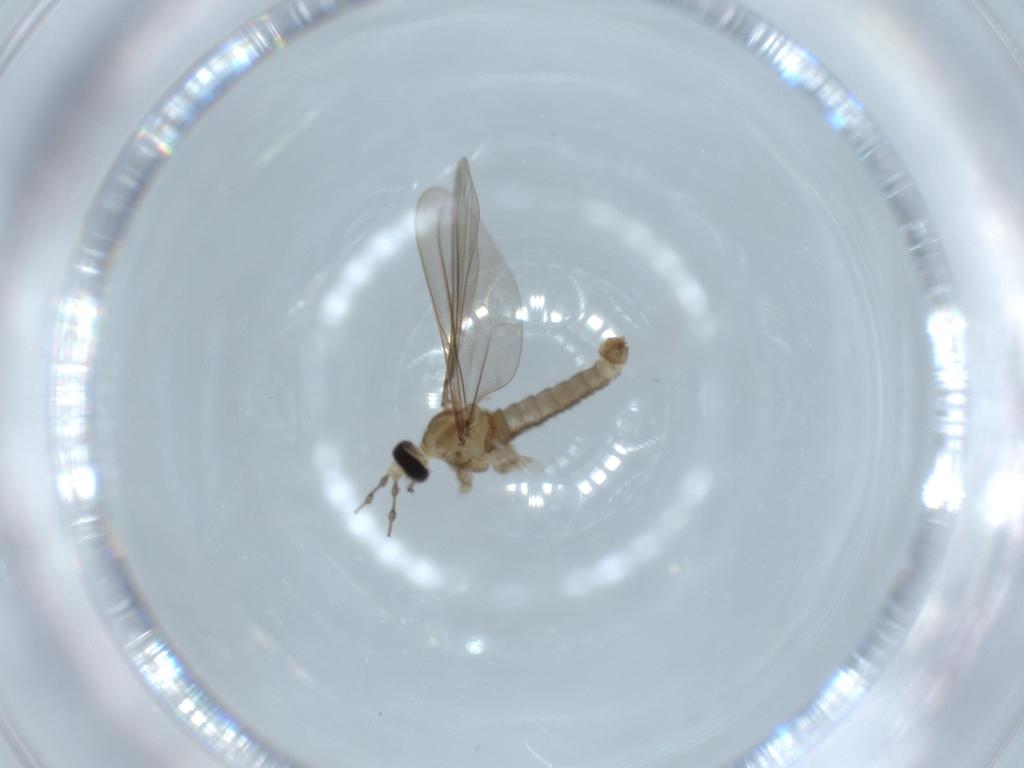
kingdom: Animalia
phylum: Arthropoda
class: Insecta
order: Diptera
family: Cecidomyiidae
